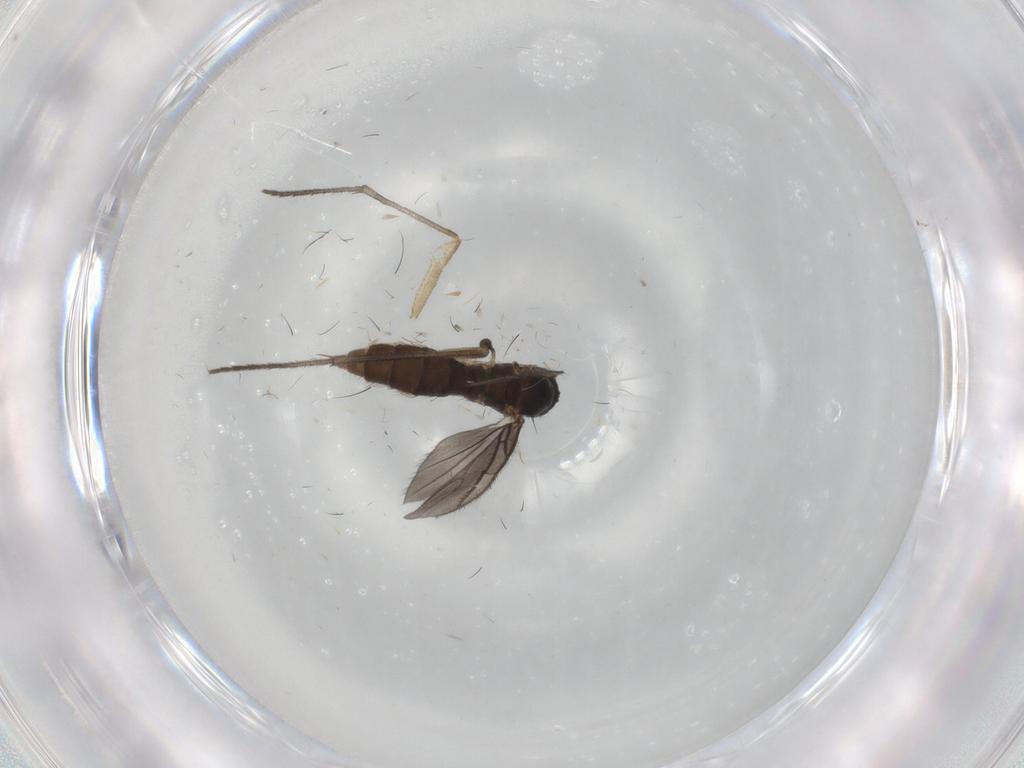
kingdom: Animalia
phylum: Arthropoda
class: Insecta
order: Diptera
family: Sciaridae
